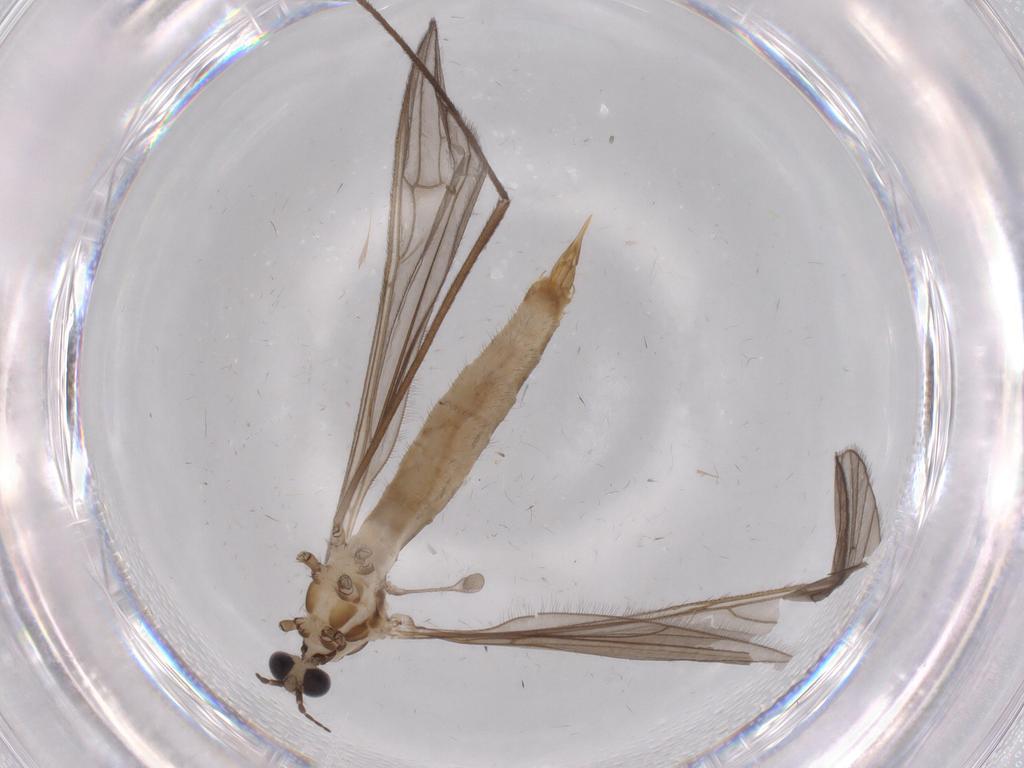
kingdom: Animalia
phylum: Arthropoda
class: Insecta
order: Diptera
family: Limoniidae
